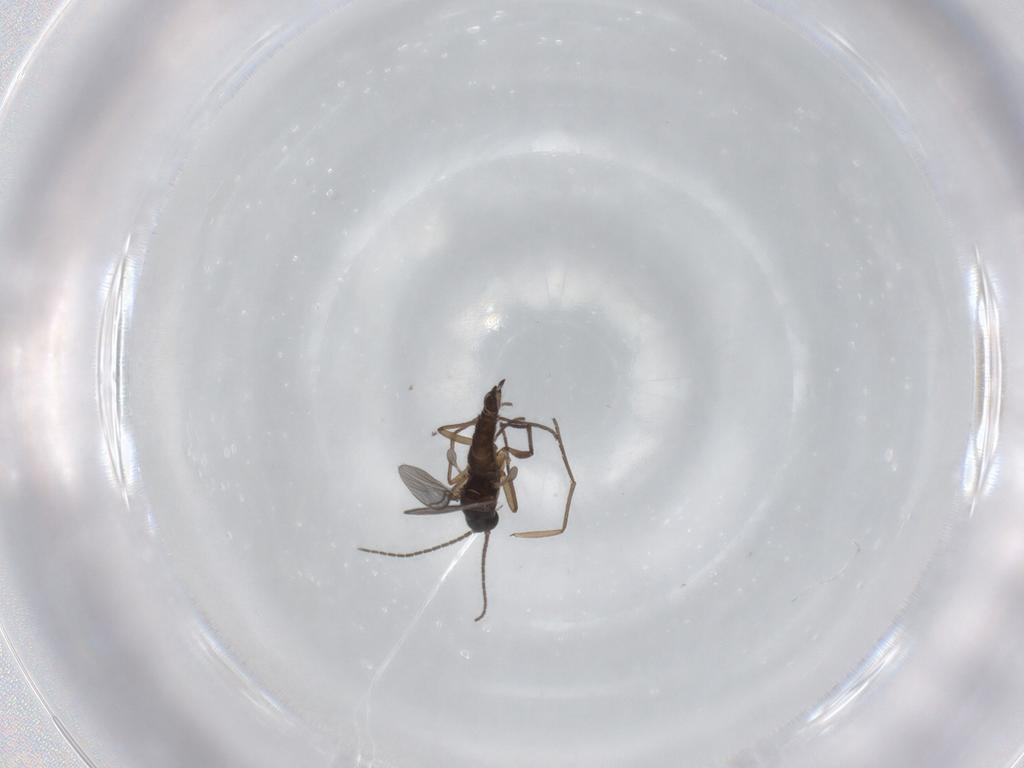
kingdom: Animalia
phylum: Arthropoda
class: Insecta
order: Diptera
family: Sciaridae
